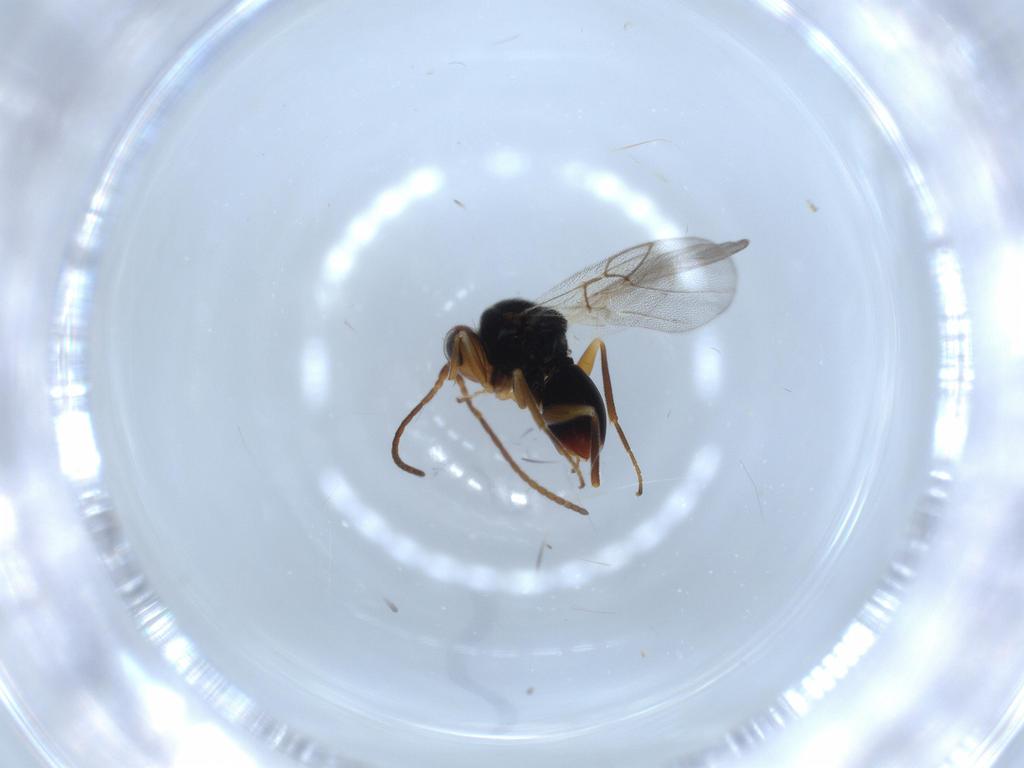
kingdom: Animalia
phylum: Arthropoda
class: Insecta
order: Hymenoptera
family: Cynipidae
